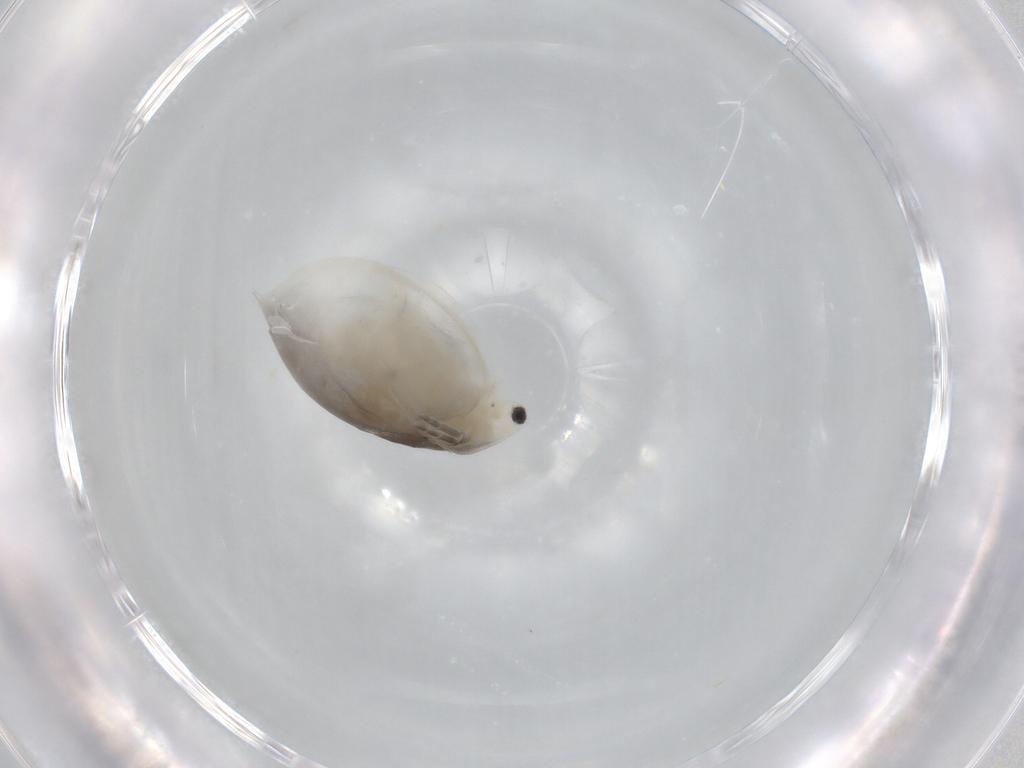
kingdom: Animalia
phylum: Arthropoda
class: Branchiopoda
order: Diplostraca
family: Daphniidae
